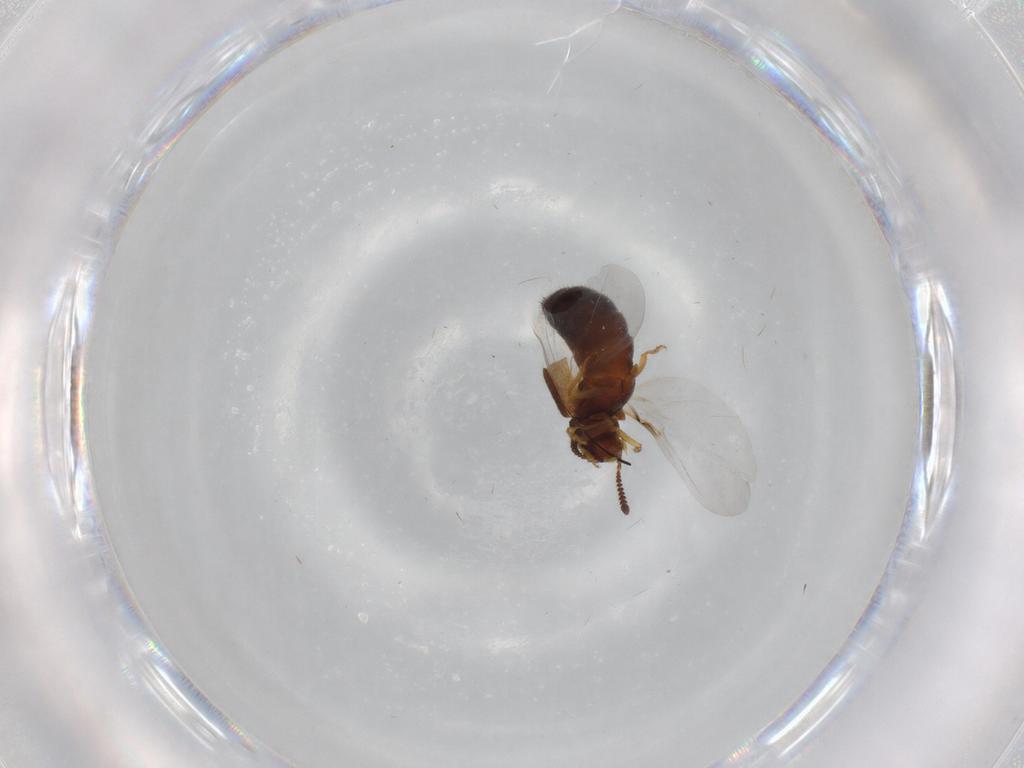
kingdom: Animalia
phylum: Arthropoda
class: Insecta
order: Coleoptera
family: Staphylinidae
